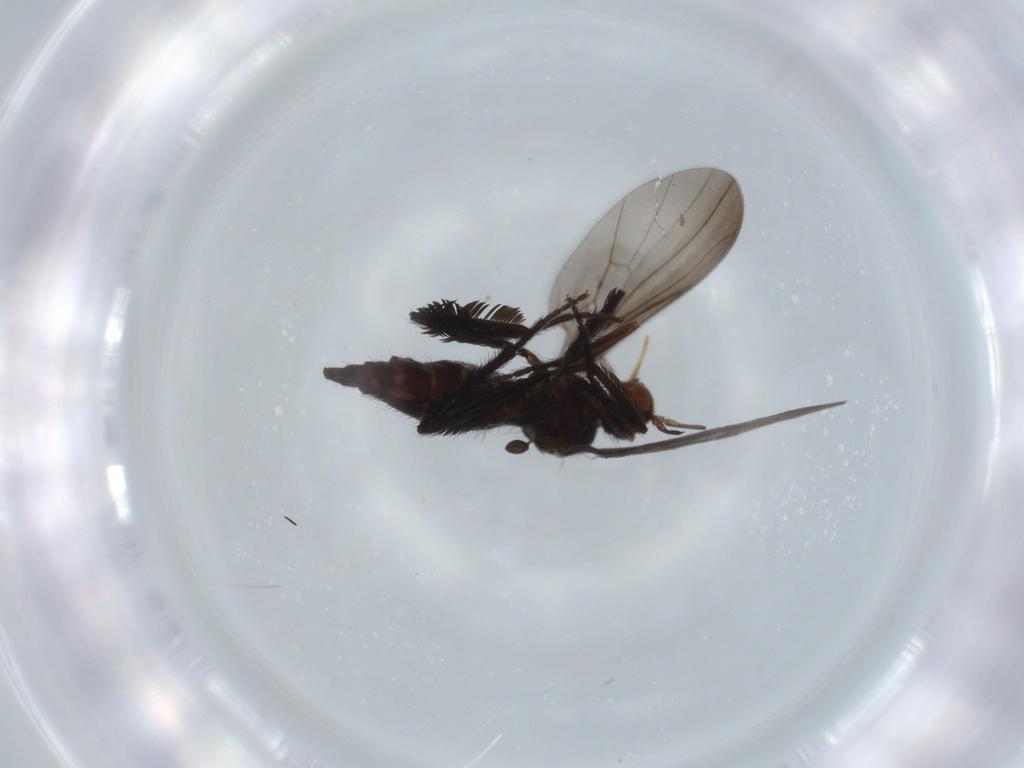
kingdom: Animalia
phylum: Arthropoda
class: Insecta
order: Diptera
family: Empididae
